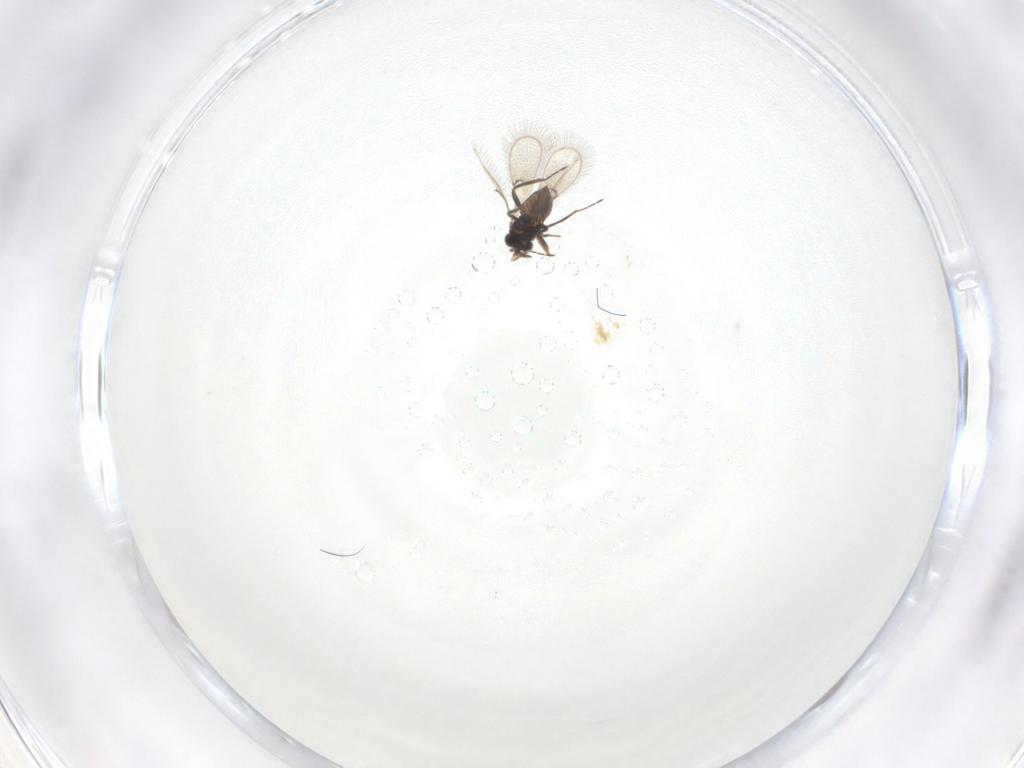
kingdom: Animalia
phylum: Arthropoda
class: Insecta
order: Hymenoptera
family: Trichogrammatidae
